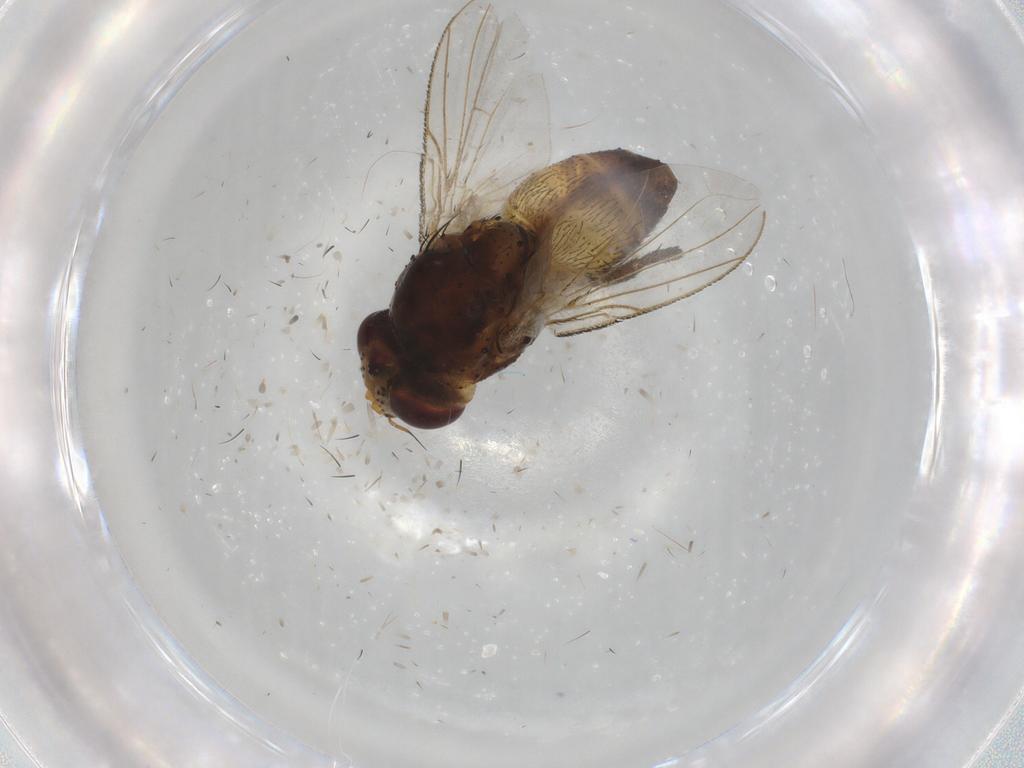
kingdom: Animalia
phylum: Arthropoda
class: Insecta
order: Diptera
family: Glossinidae
